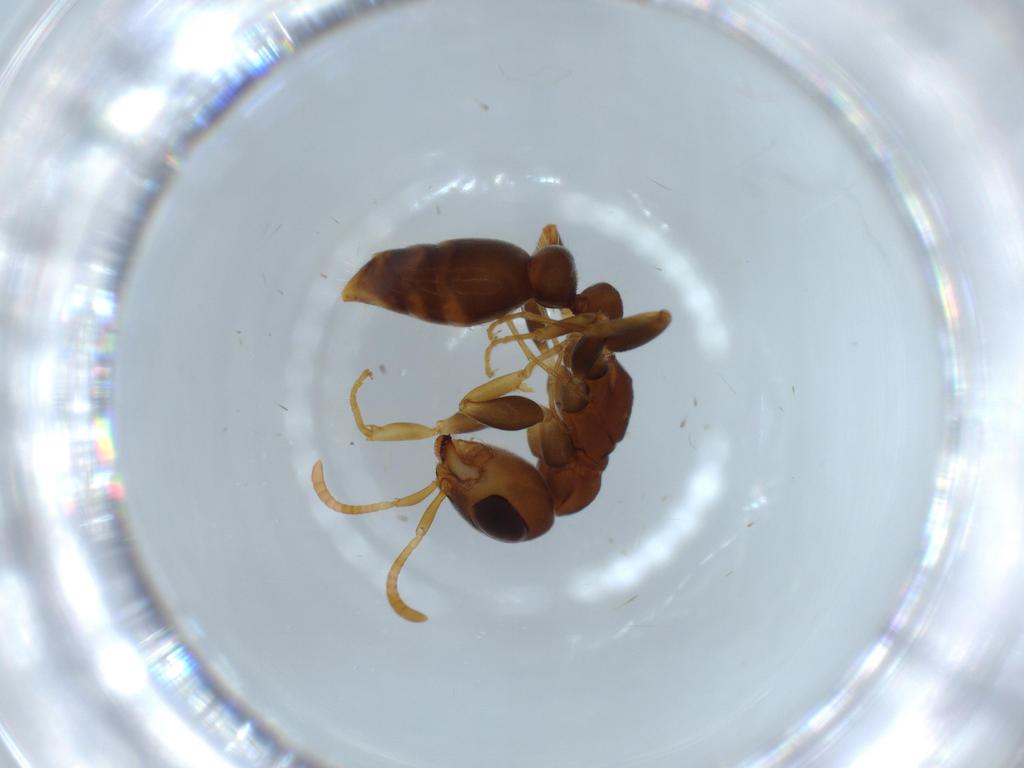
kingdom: Animalia
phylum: Arthropoda
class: Insecta
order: Hymenoptera
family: Formicidae
